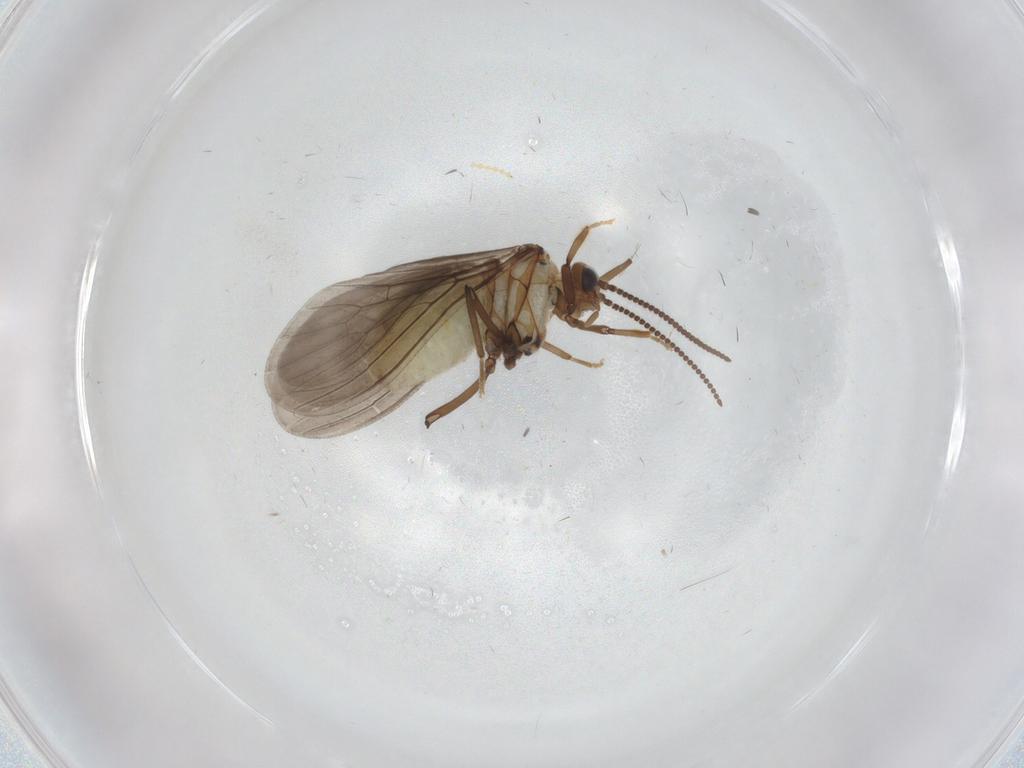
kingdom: Animalia
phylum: Arthropoda
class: Insecta
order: Neuroptera
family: Coniopterygidae
